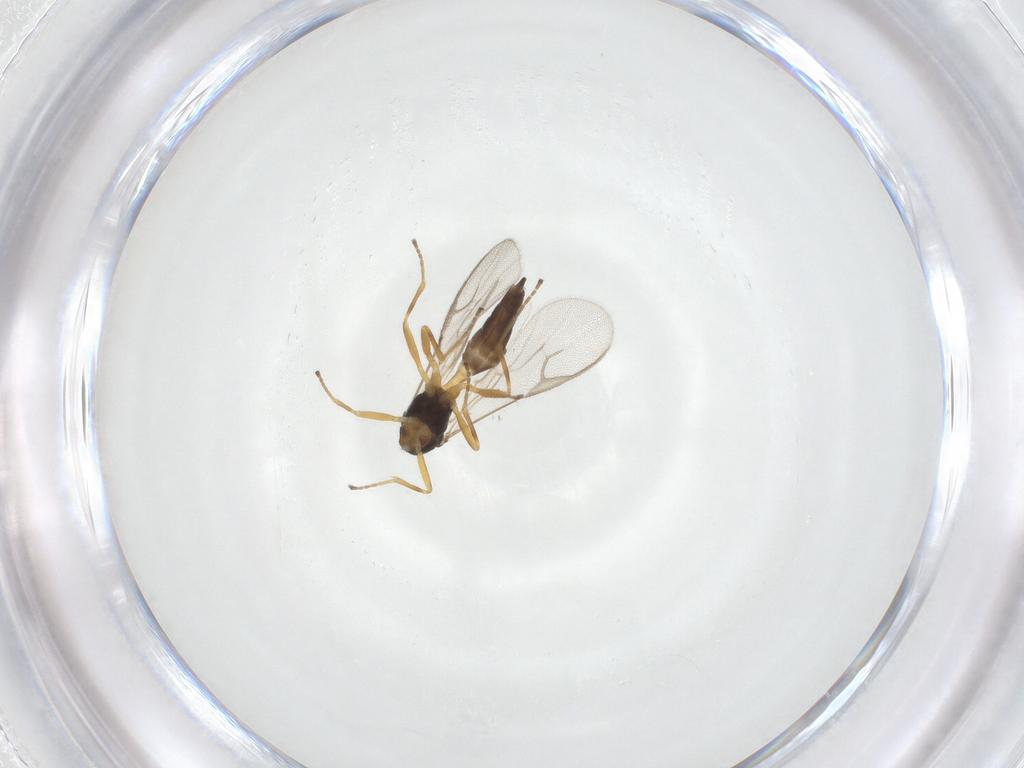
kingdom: Animalia
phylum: Arthropoda
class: Insecta
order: Hymenoptera
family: Braconidae
